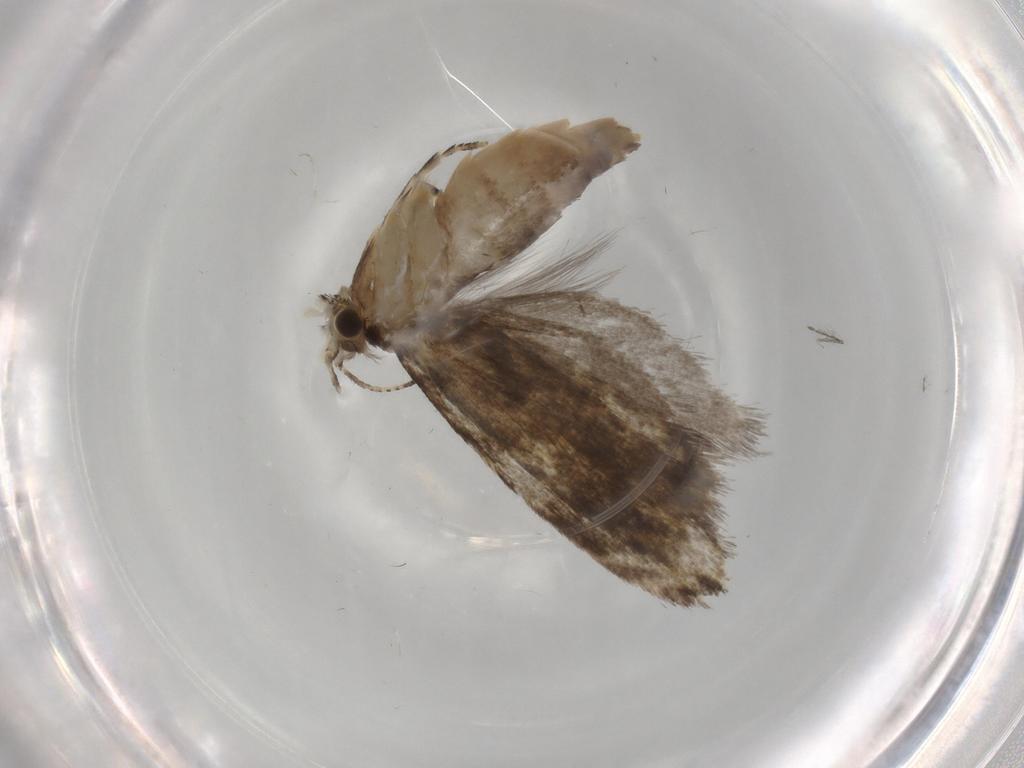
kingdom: Animalia
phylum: Arthropoda
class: Insecta
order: Lepidoptera
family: Tineidae
